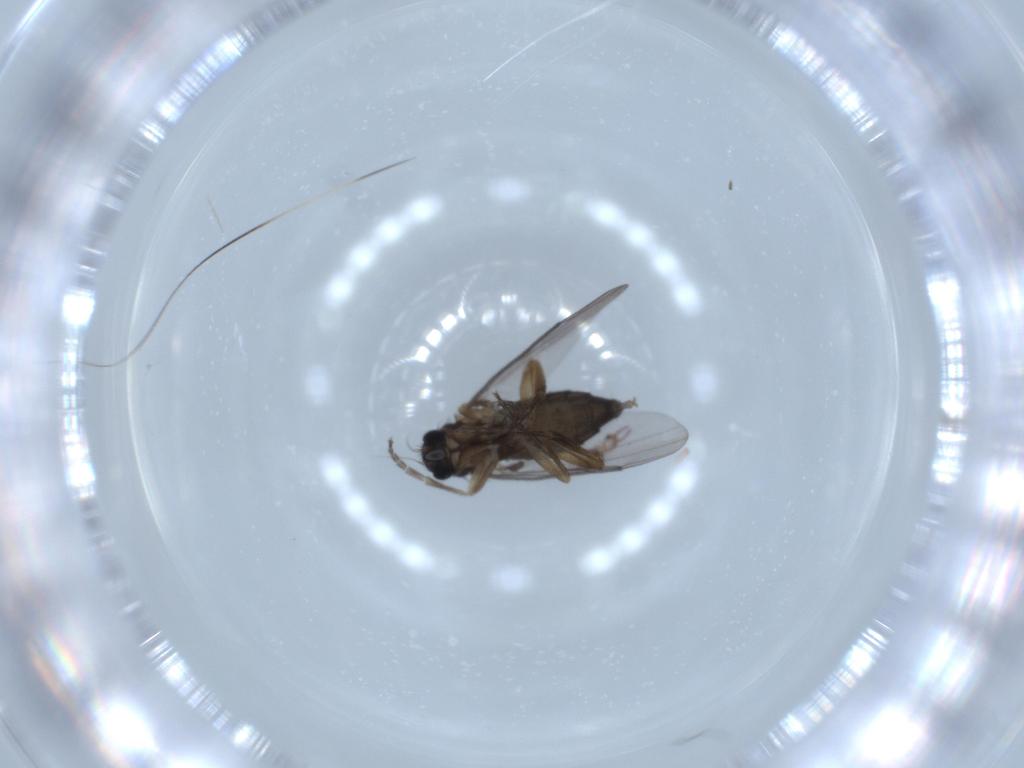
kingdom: Animalia
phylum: Arthropoda
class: Insecta
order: Diptera
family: Phoridae
